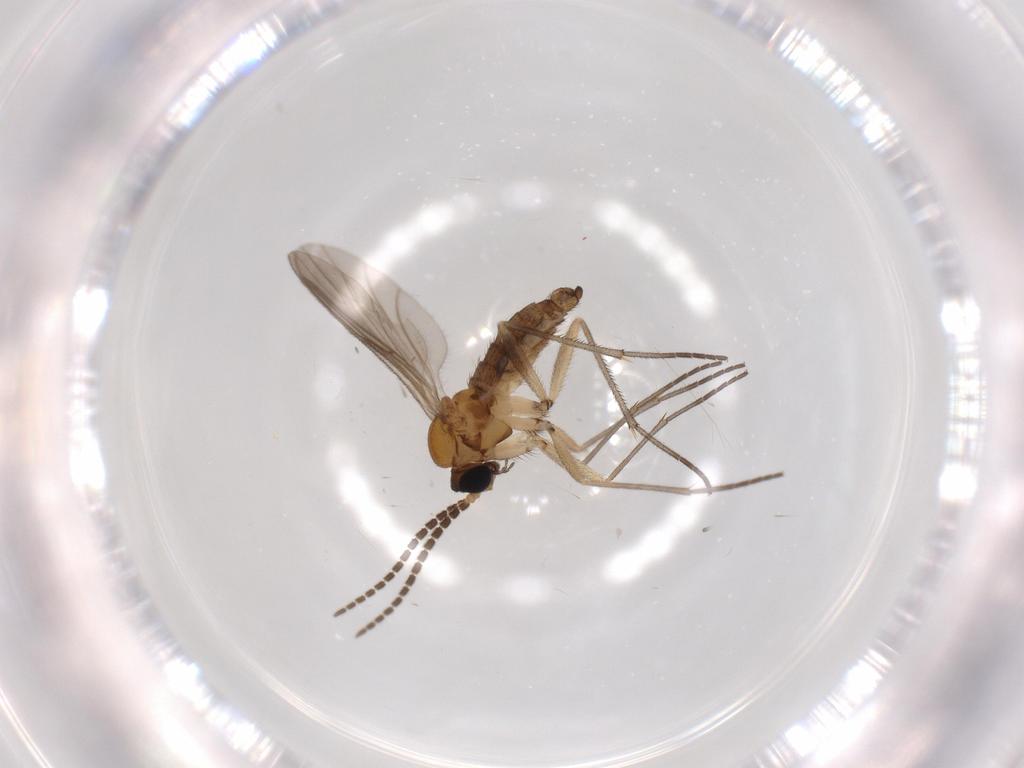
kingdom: Animalia
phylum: Arthropoda
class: Insecta
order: Diptera
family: Sciaridae
